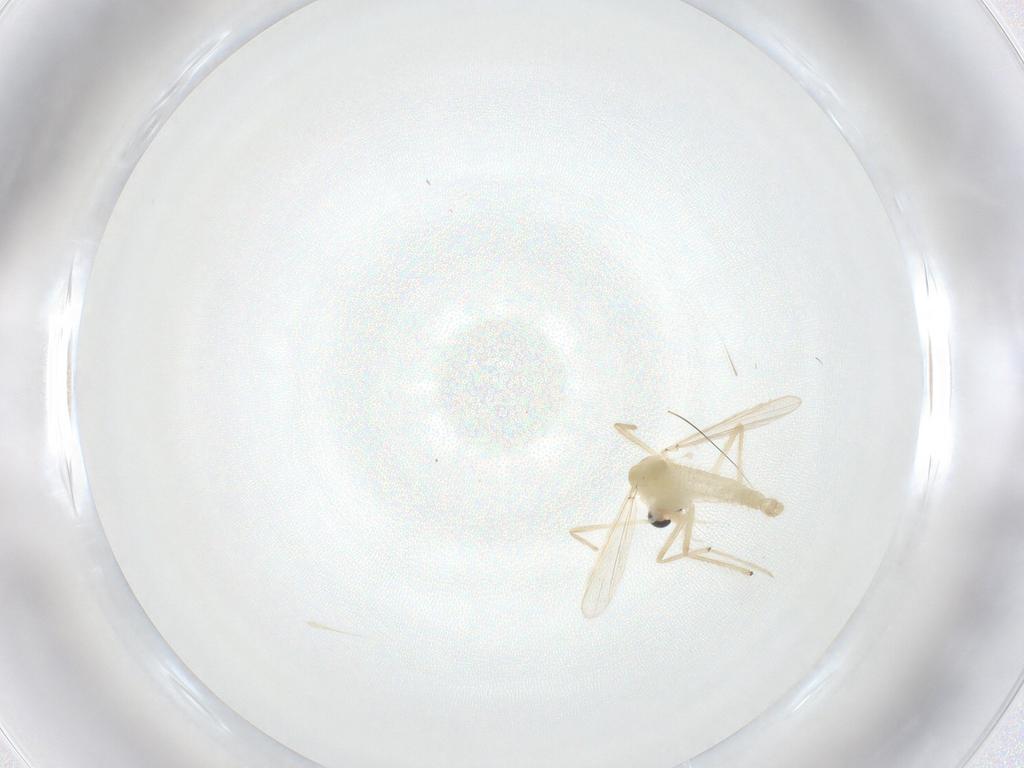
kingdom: Animalia
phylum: Arthropoda
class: Insecta
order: Diptera
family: Chironomidae
